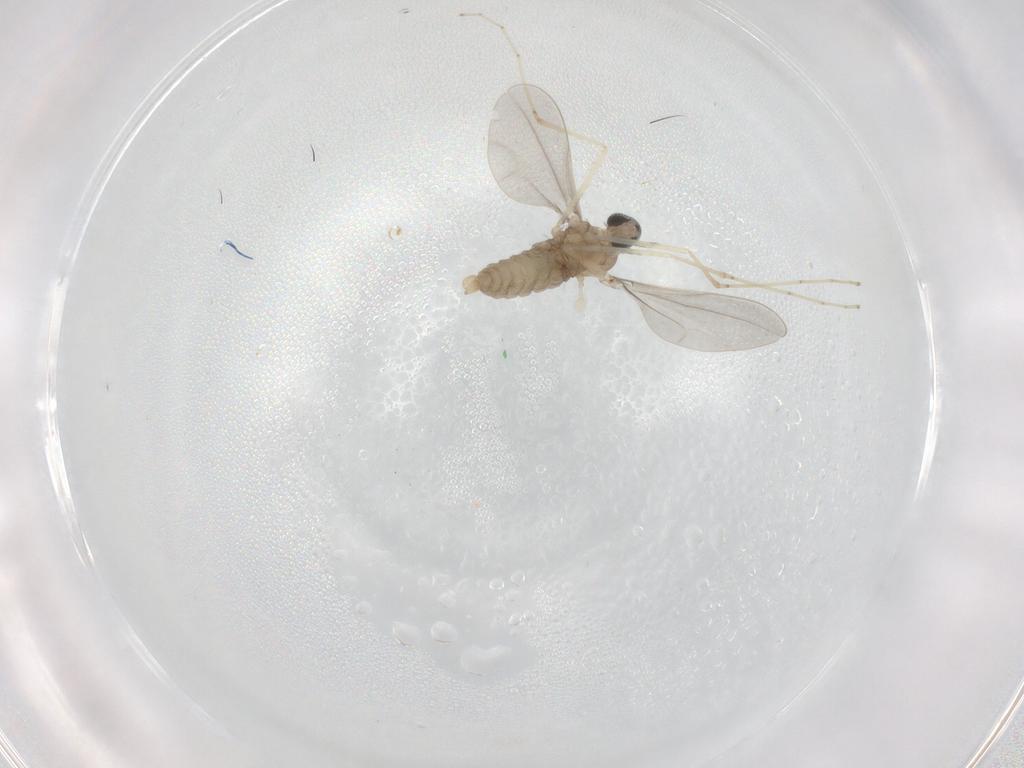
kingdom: Animalia
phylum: Arthropoda
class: Insecta
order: Diptera
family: Cecidomyiidae
